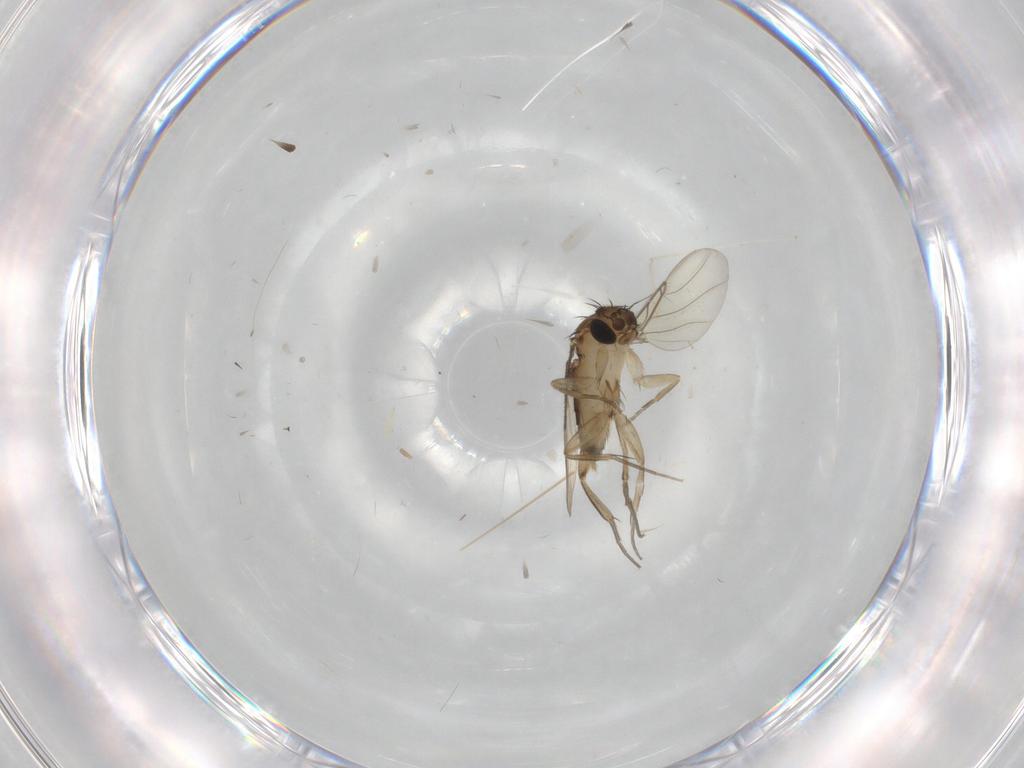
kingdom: Animalia
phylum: Arthropoda
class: Insecta
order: Diptera
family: Phoridae
